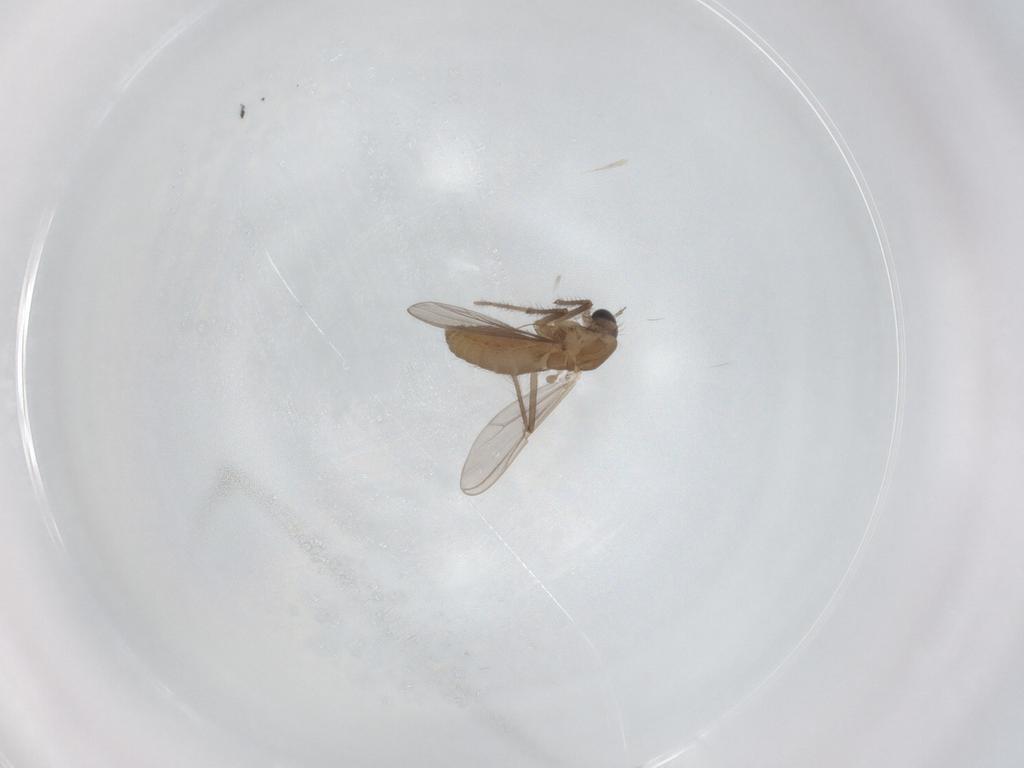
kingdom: Animalia
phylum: Arthropoda
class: Insecta
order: Diptera
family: Chironomidae
